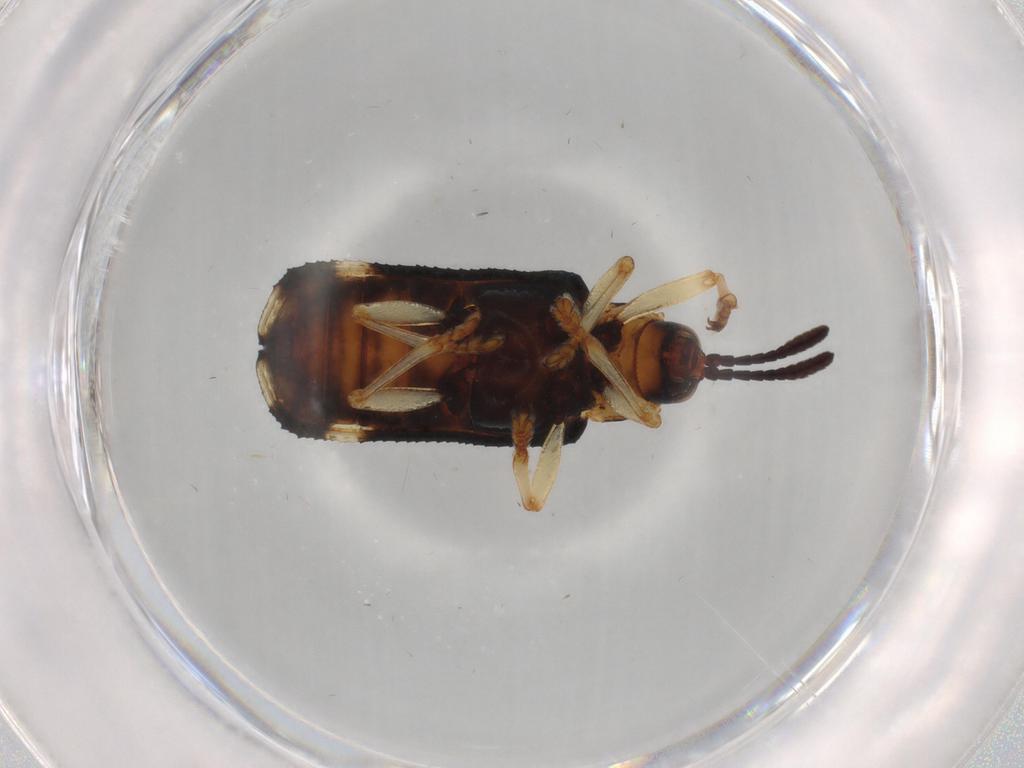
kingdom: Animalia
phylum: Arthropoda
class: Insecta
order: Coleoptera
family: Chrysomelidae
